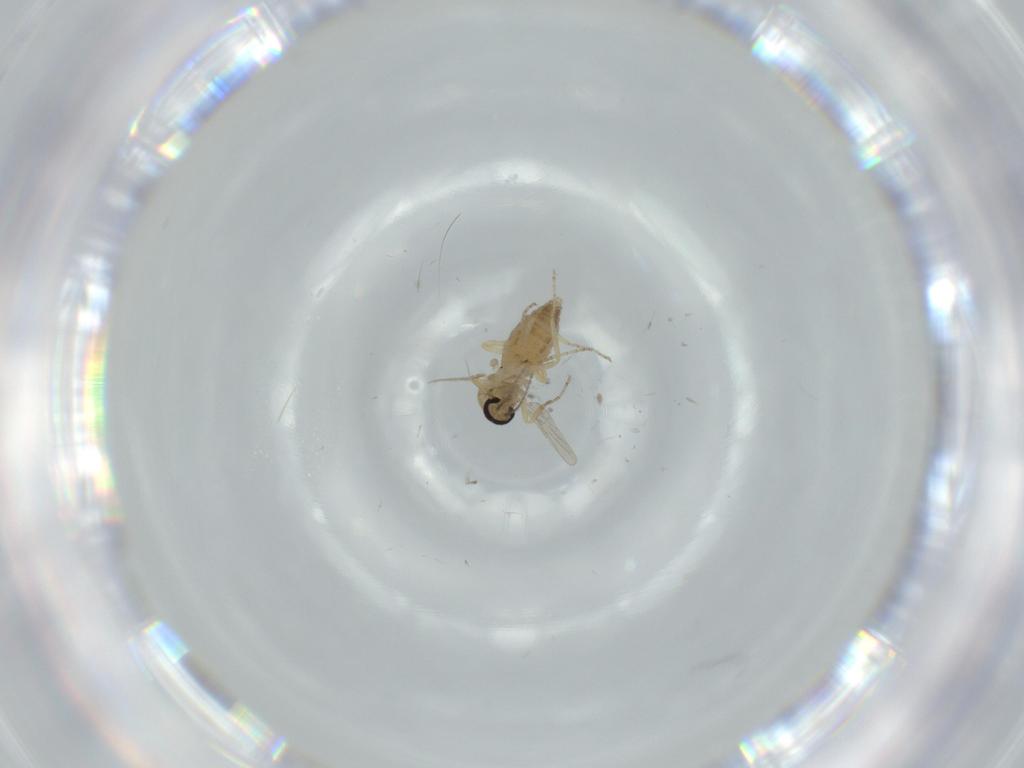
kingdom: Animalia
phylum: Arthropoda
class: Insecta
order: Diptera
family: Ceratopogonidae
